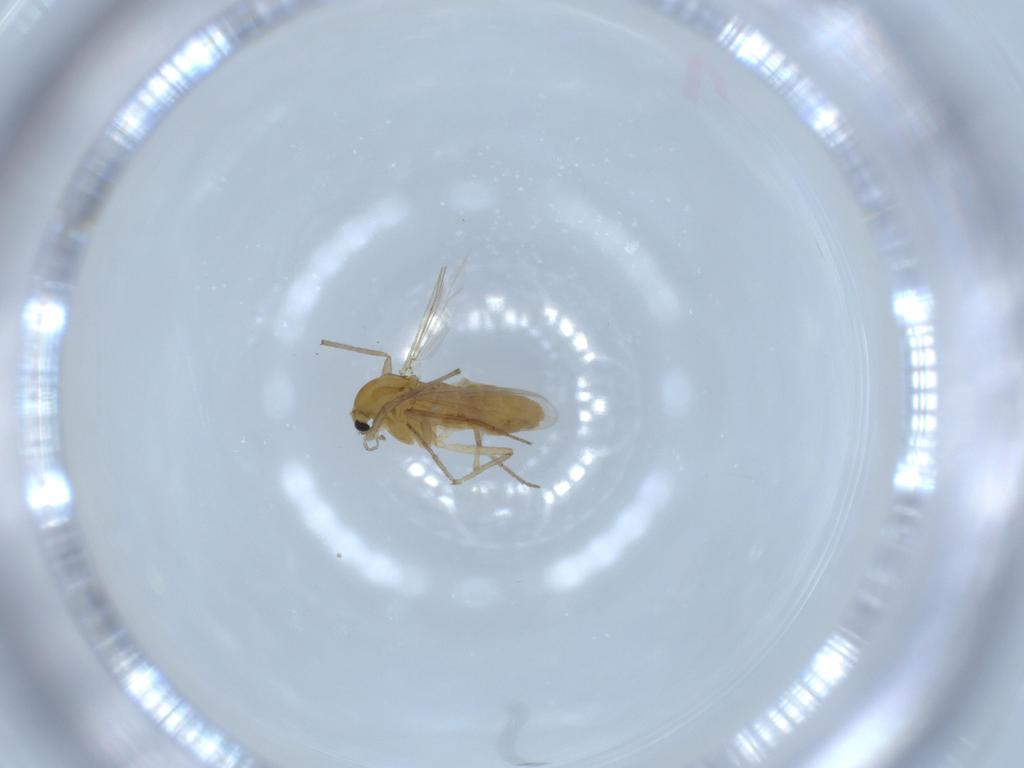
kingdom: Animalia
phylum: Arthropoda
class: Insecta
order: Diptera
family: Chironomidae
